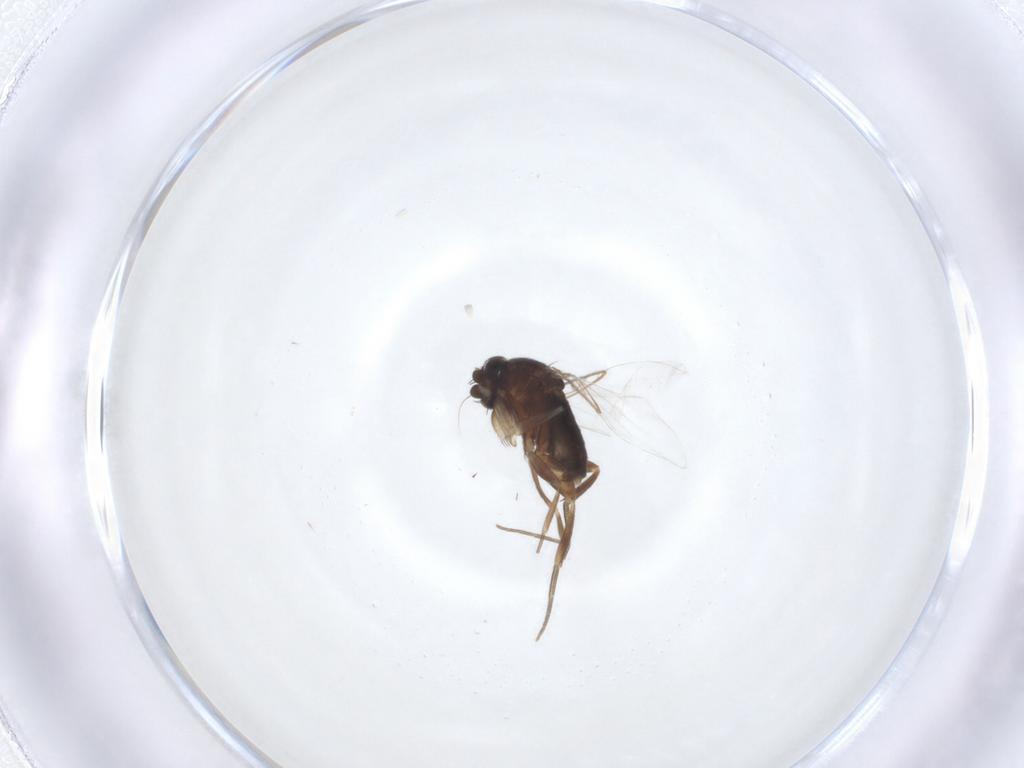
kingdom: Animalia
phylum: Arthropoda
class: Insecta
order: Diptera
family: Phoridae
